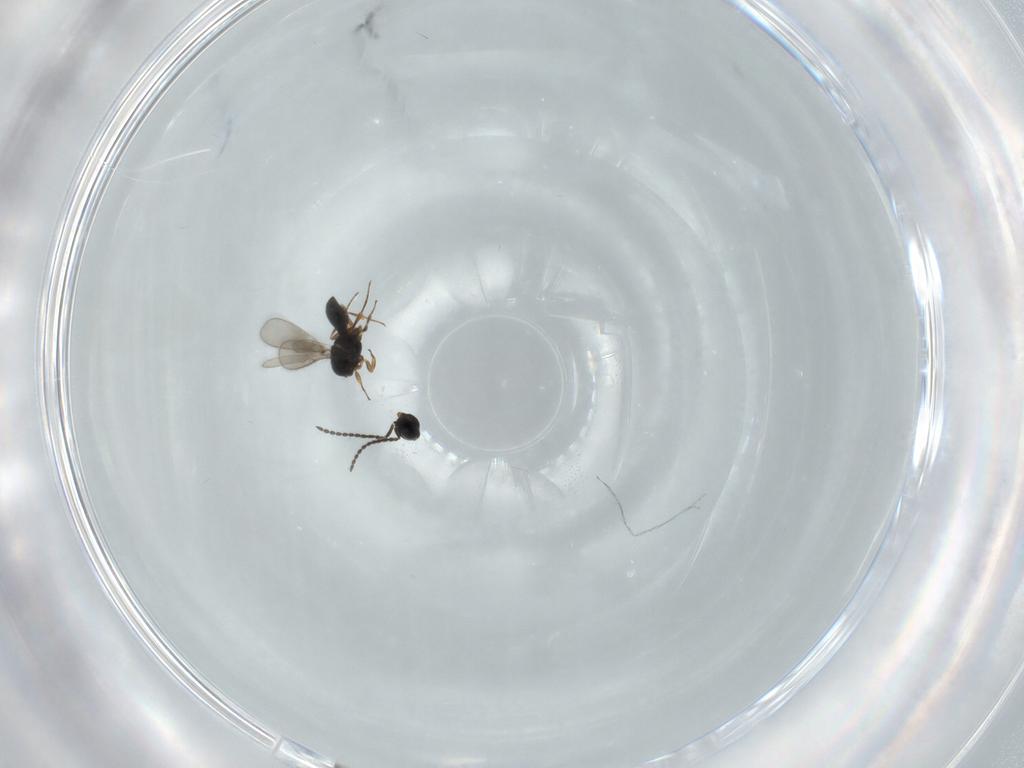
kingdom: Animalia
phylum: Arthropoda
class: Insecta
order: Hymenoptera
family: Scelionidae
